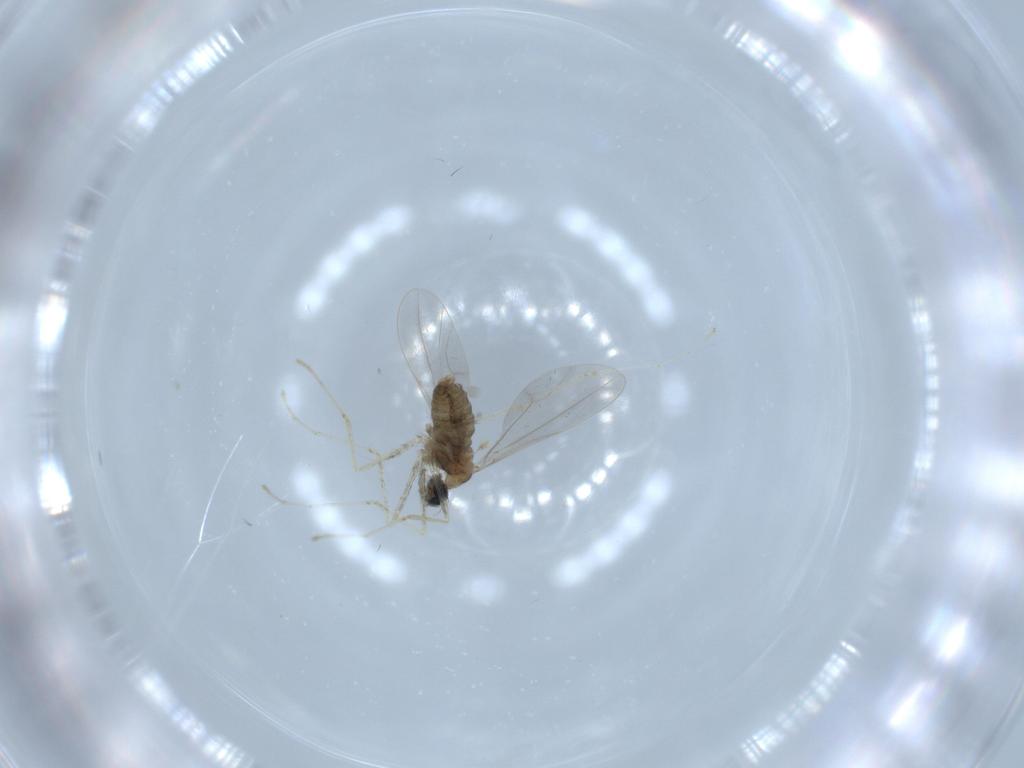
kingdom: Animalia
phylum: Arthropoda
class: Insecta
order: Diptera
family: Cecidomyiidae
